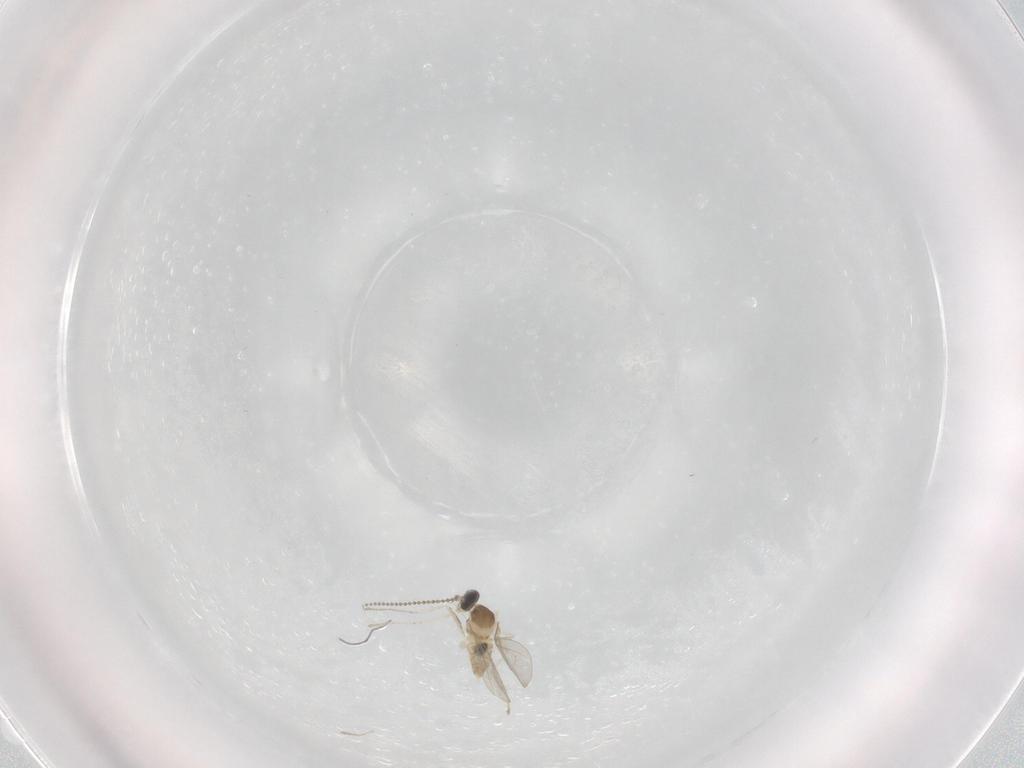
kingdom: Animalia
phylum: Arthropoda
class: Insecta
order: Diptera
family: Cecidomyiidae
